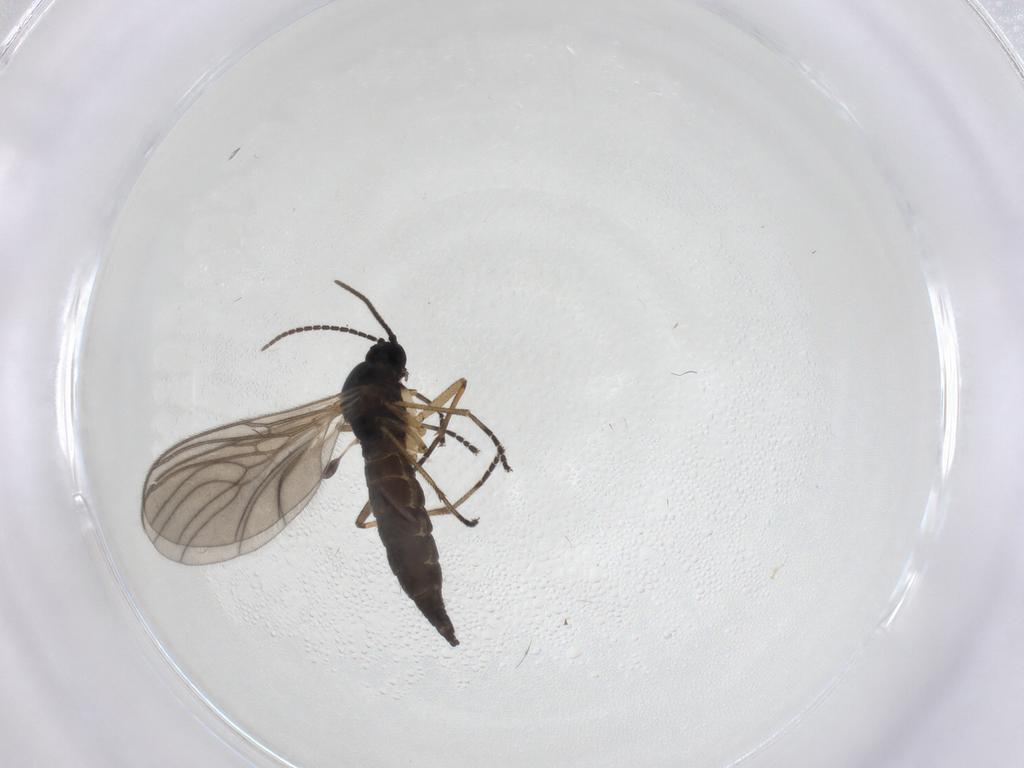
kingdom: Animalia
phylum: Arthropoda
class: Insecta
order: Diptera
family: Sciaridae
